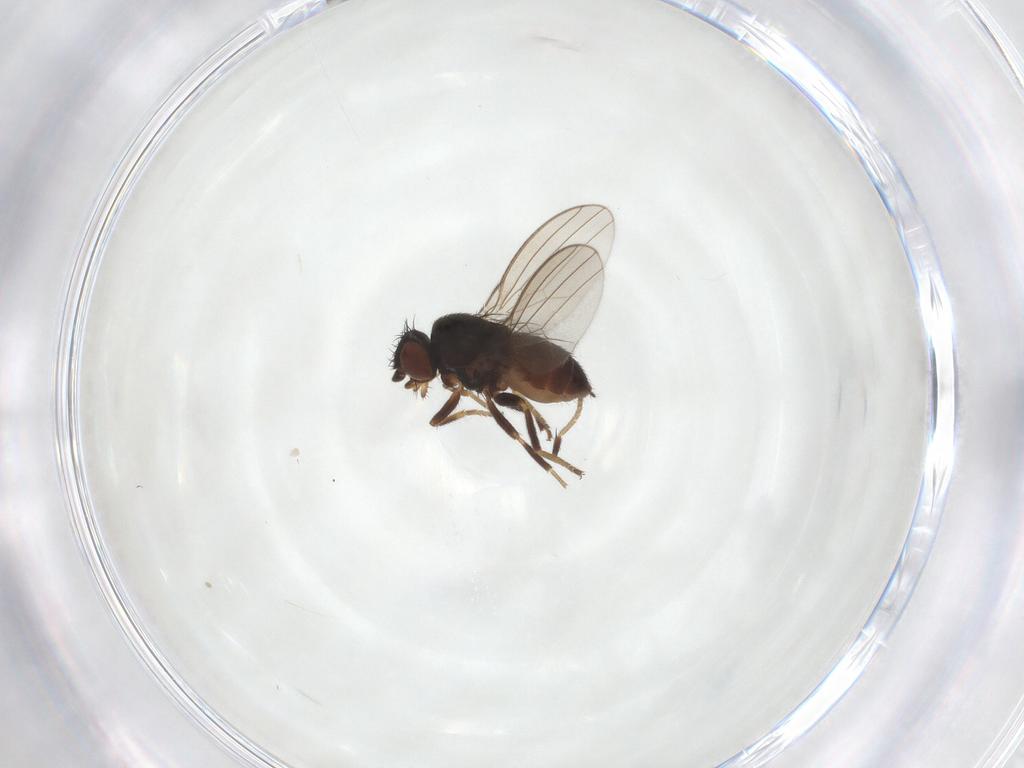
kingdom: Animalia
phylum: Arthropoda
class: Insecta
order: Diptera
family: Milichiidae
